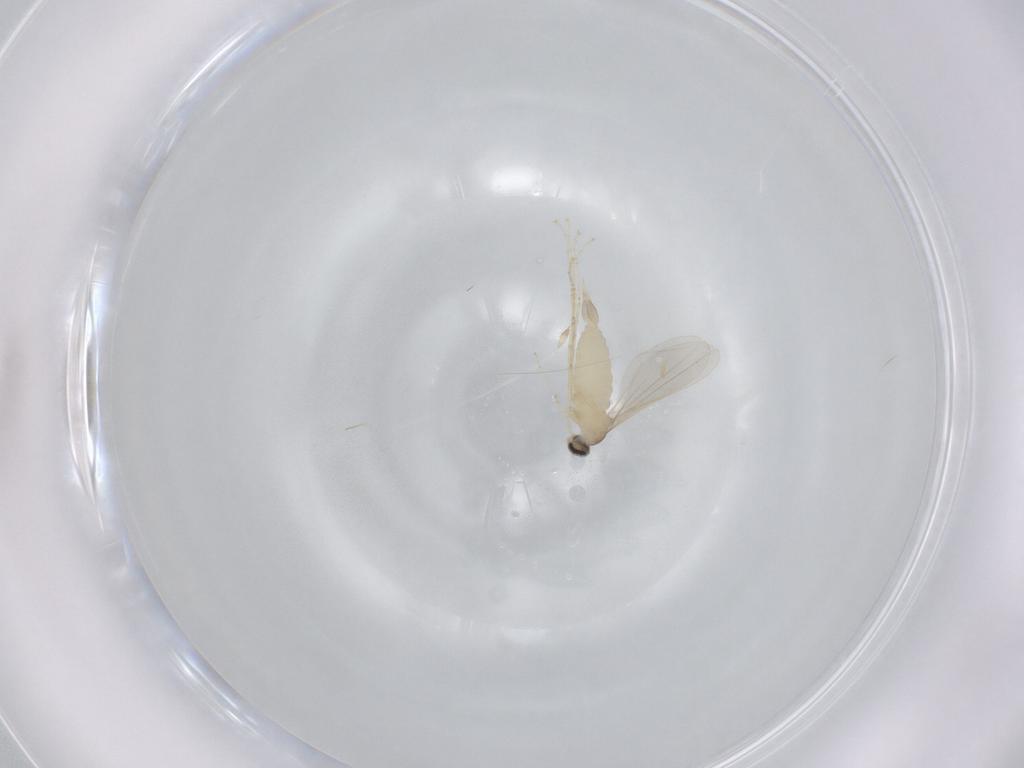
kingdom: Animalia
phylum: Arthropoda
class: Insecta
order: Diptera
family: Cecidomyiidae
